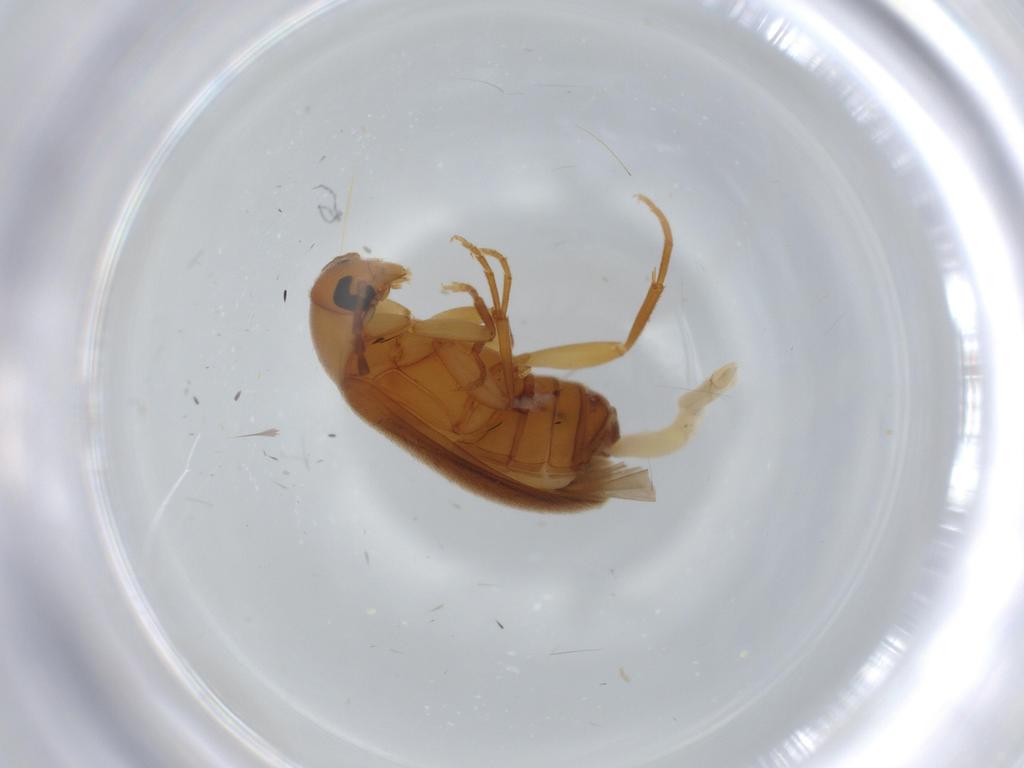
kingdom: Animalia
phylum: Arthropoda
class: Insecta
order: Coleoptera
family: Scraptiidae
